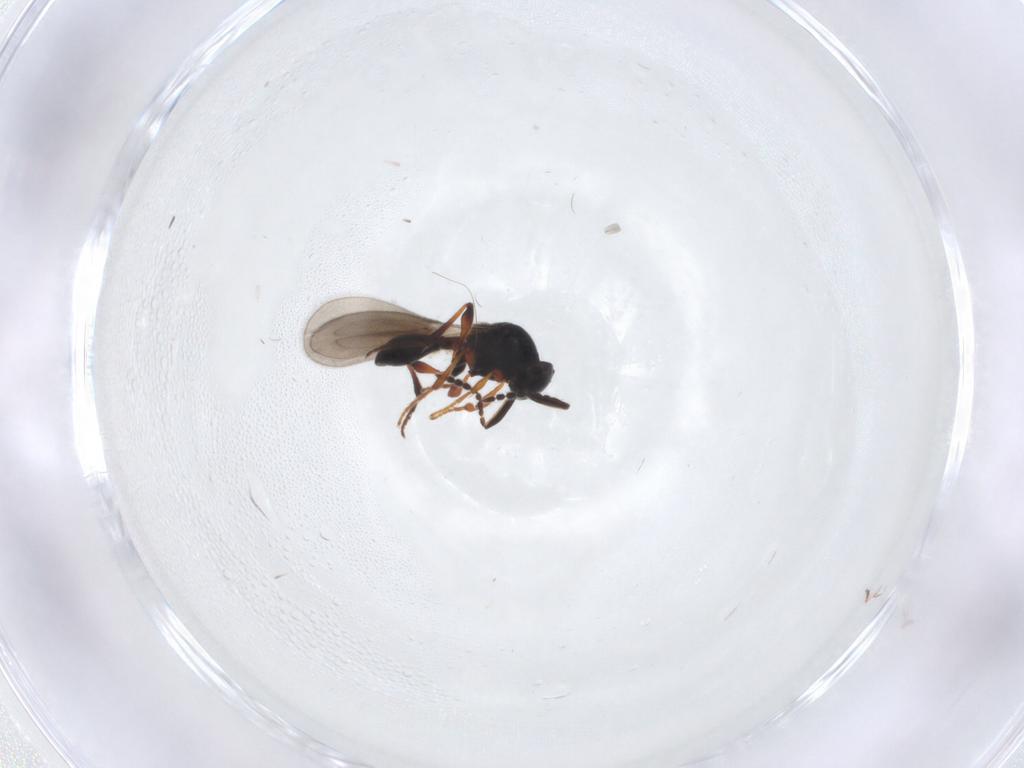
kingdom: Animalia
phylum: Arthropoda
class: Insecta
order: Hymenoptera
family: Platygastridae
